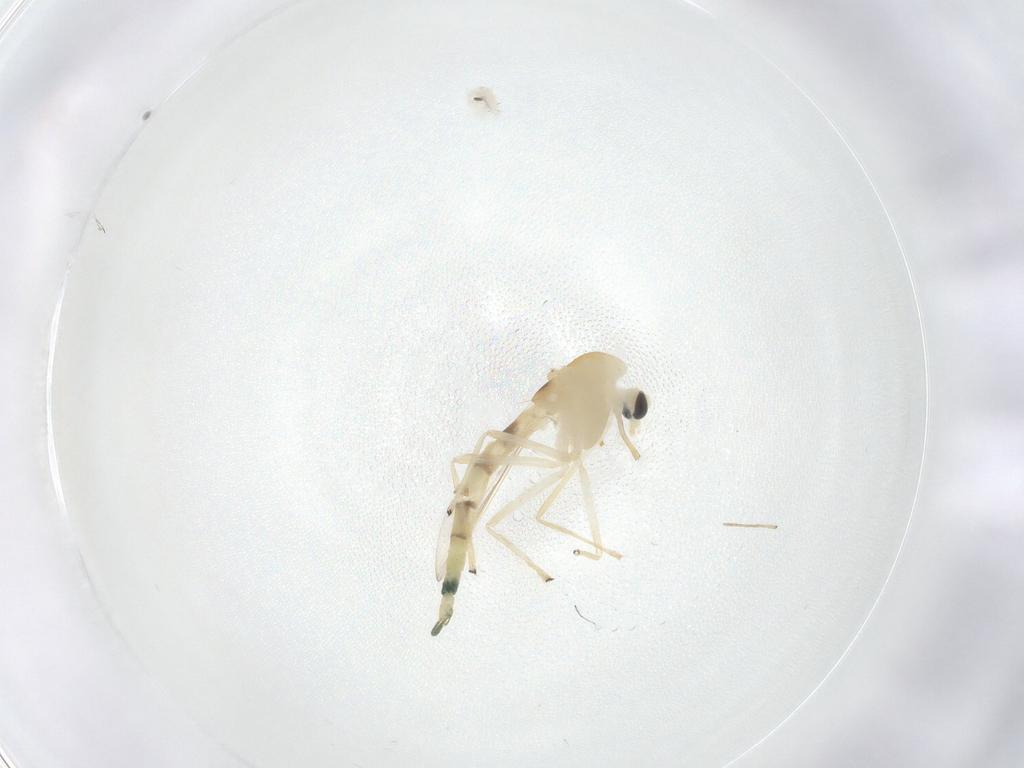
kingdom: Animalia
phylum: Arthropoda
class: Insecta
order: Diptera
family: Chironomidae
